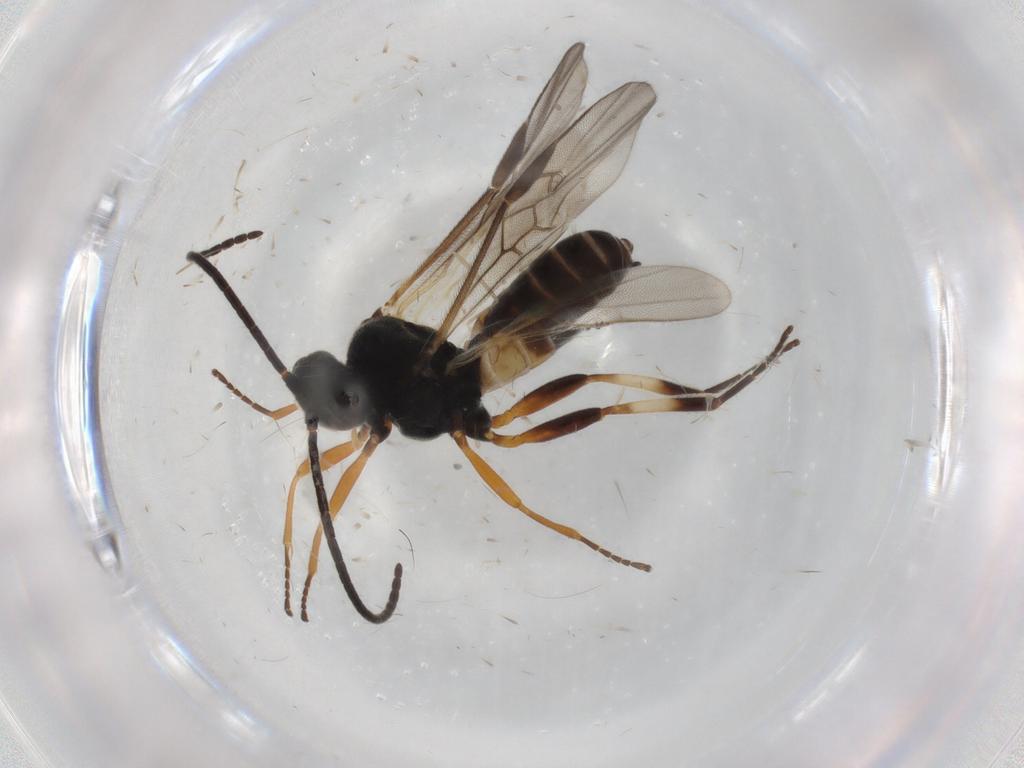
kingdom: Animalia
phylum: Arthropoda
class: Insecta
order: Hymenoptera
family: Braconidae
